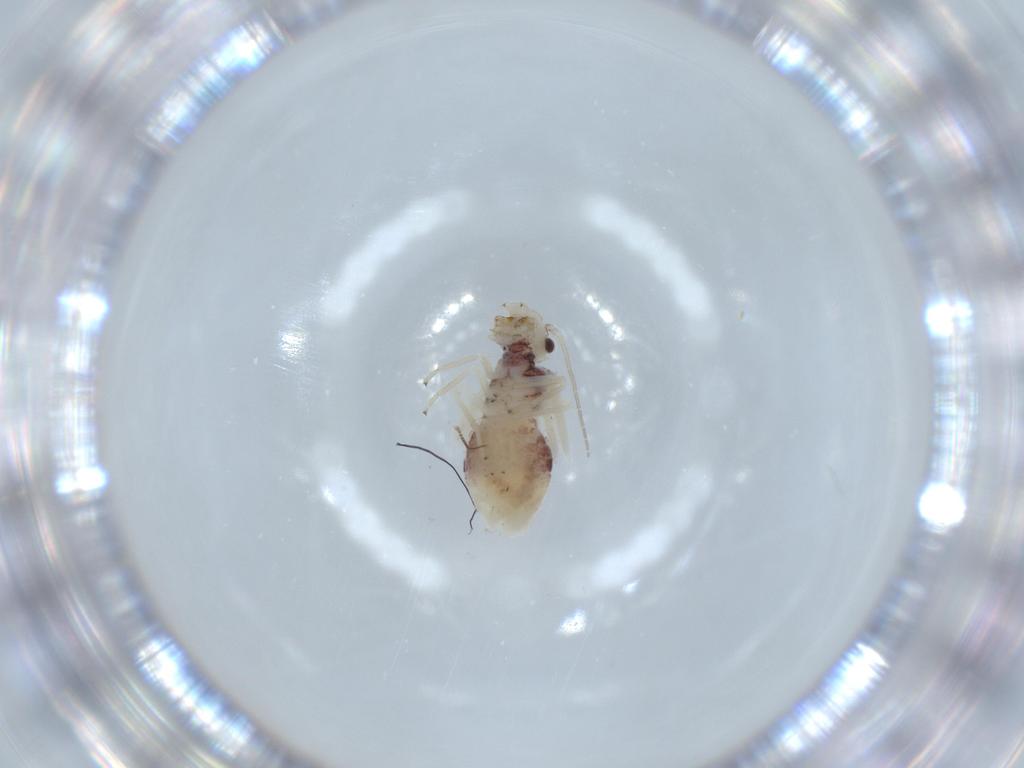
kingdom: Animalia
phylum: Arthropoda
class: Insecta
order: Psocodea
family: Caeciliusidae
